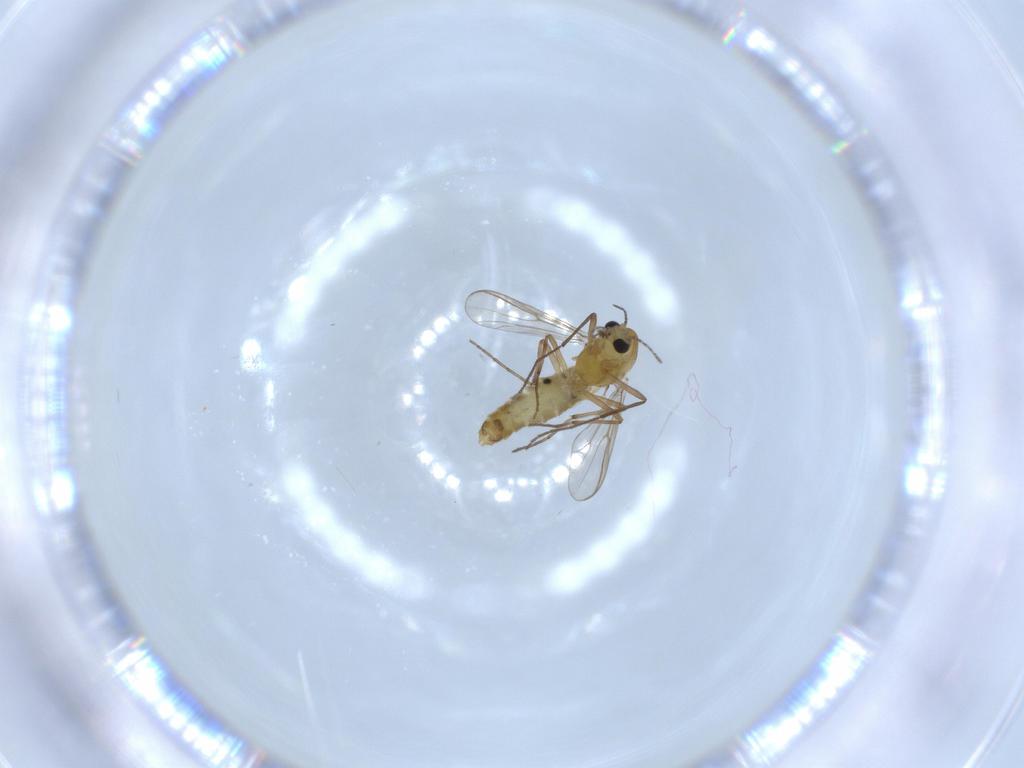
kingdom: Animalia
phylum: Arthropoda
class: Insecta
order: Diptera
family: Chironomidae
